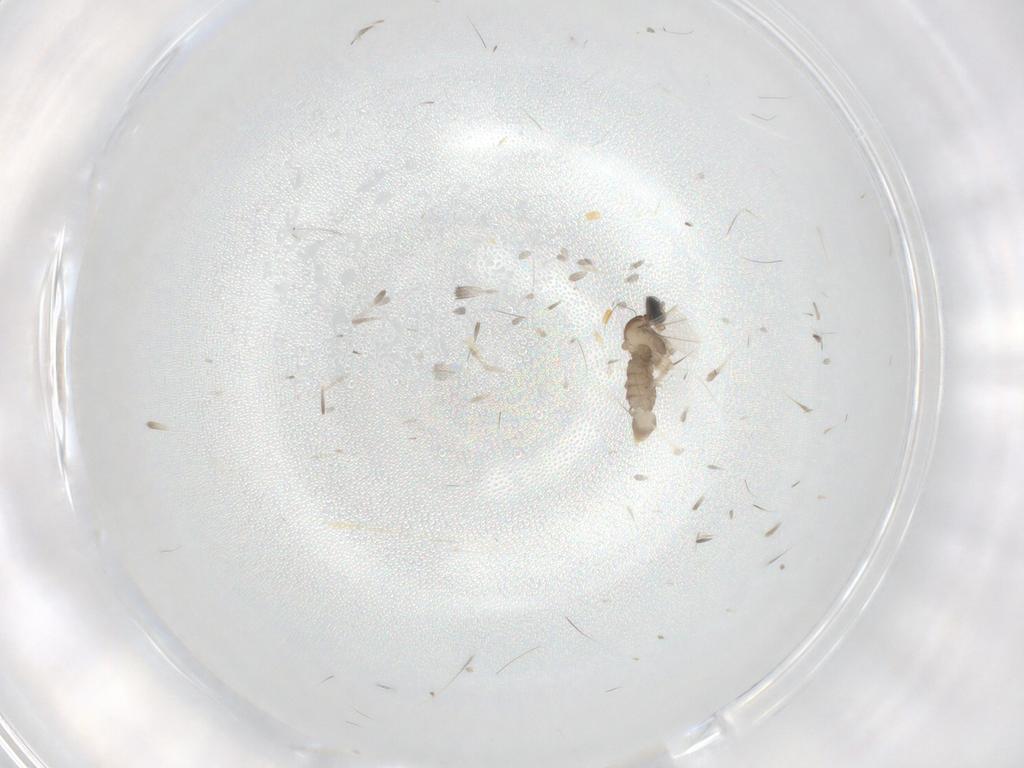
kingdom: Animalia
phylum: Arthropoda
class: Insecta
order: Diptera
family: Cecidomyiidae
